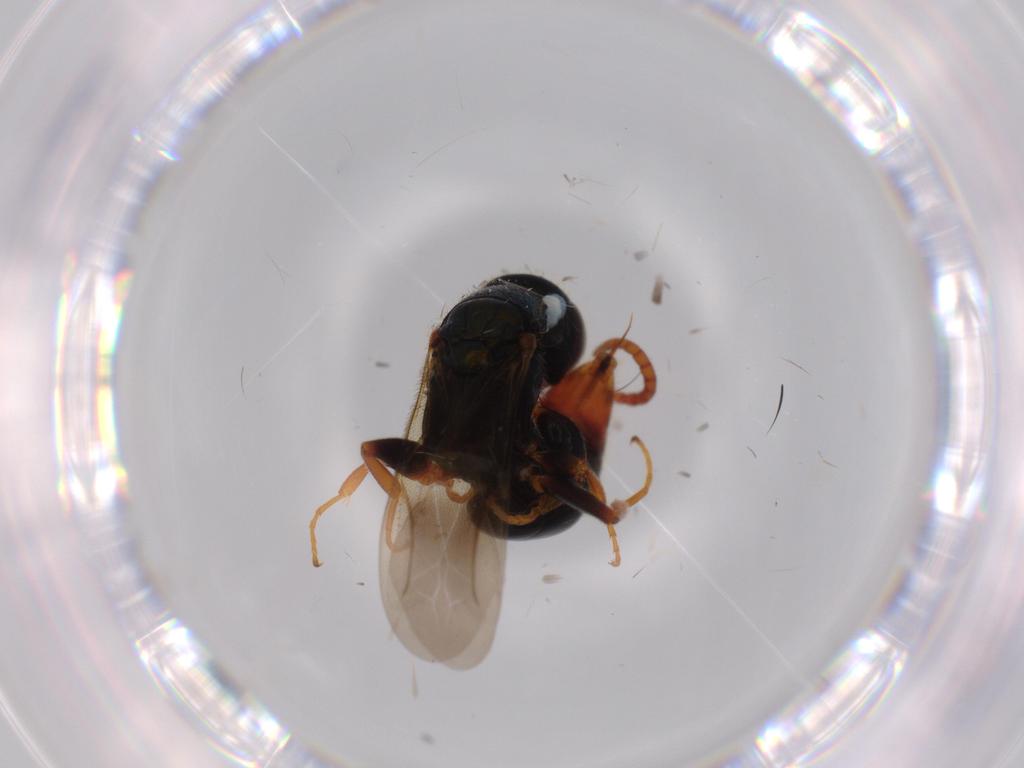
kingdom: Animalia
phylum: Arthropoda
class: Insecta
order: Hymenoptera
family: Bethylidae
